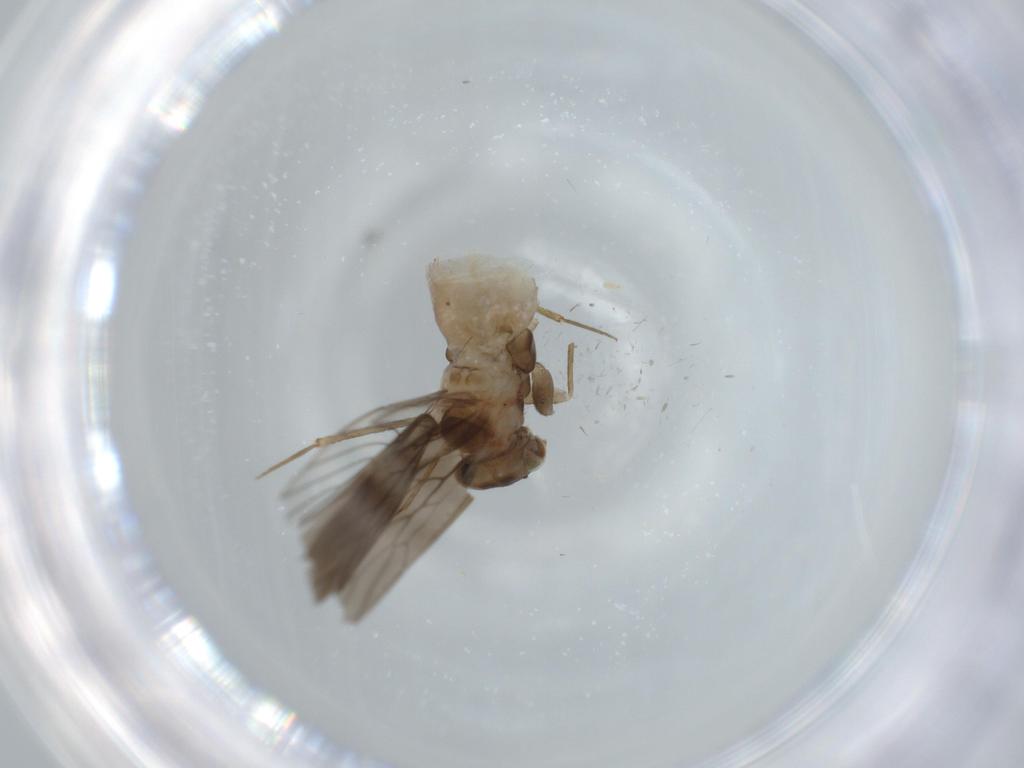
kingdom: Animalia
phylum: Arthropoda
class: Insecta
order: Psocodea
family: Lepidopsocidae
